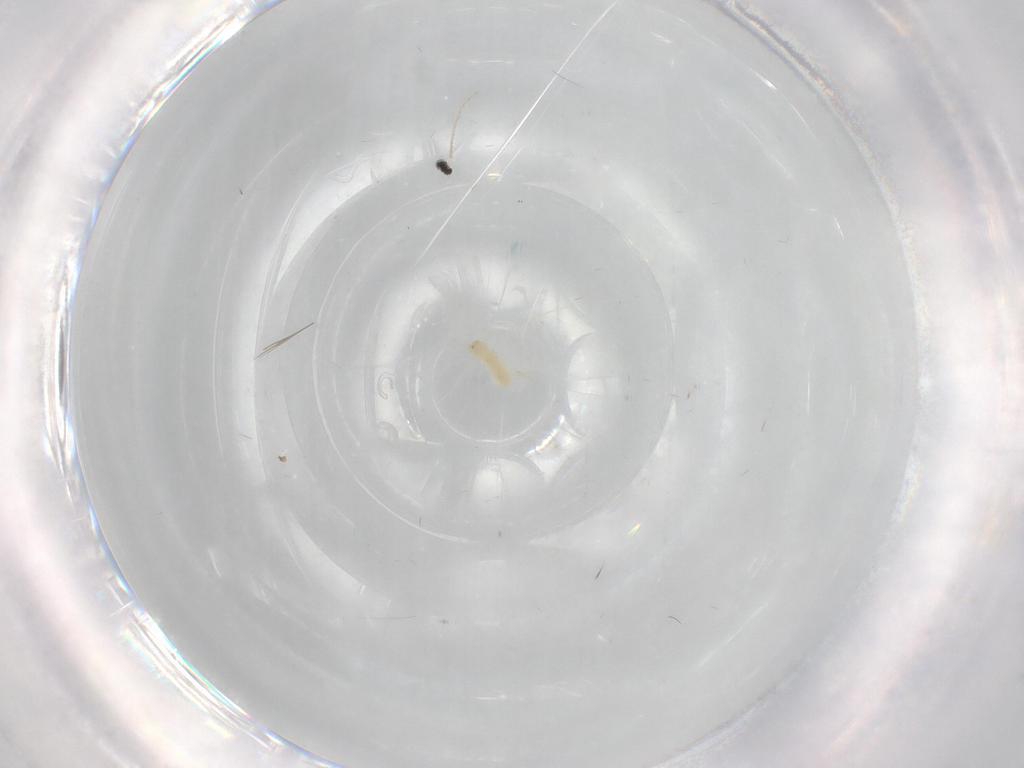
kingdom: Animalia
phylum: Arthropoda
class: Insecta
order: Diptera
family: Cecidomyiidae
